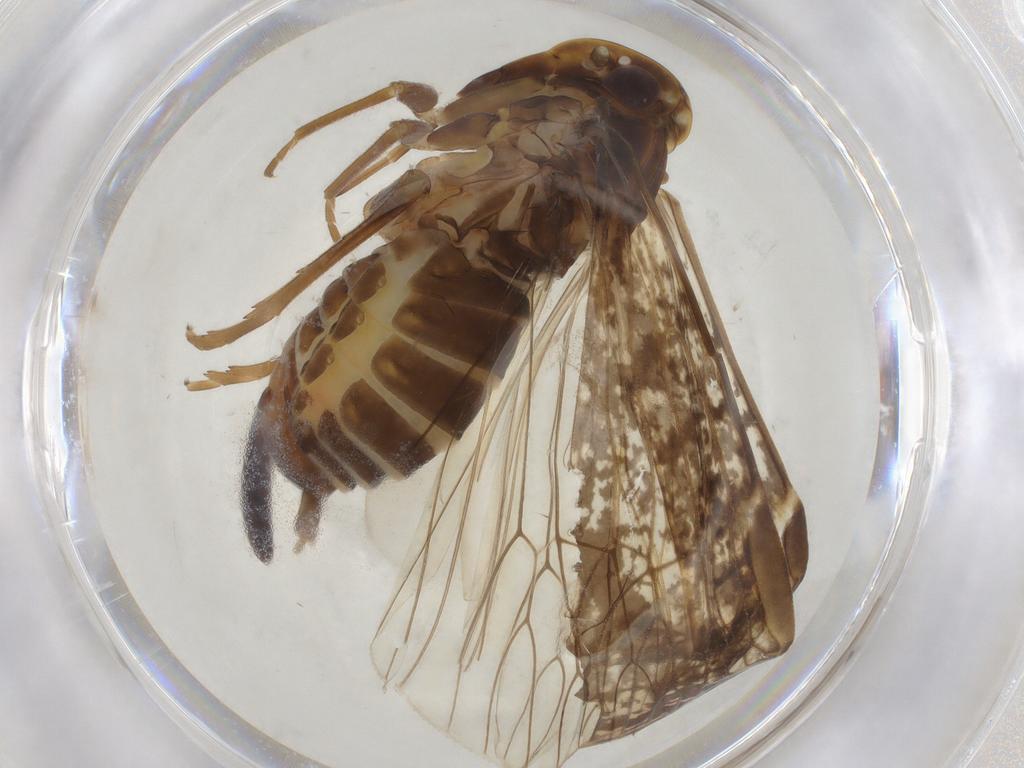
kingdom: Animalia
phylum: Arthropoda
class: Insecta
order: Hemiptera
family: Cixiidae
